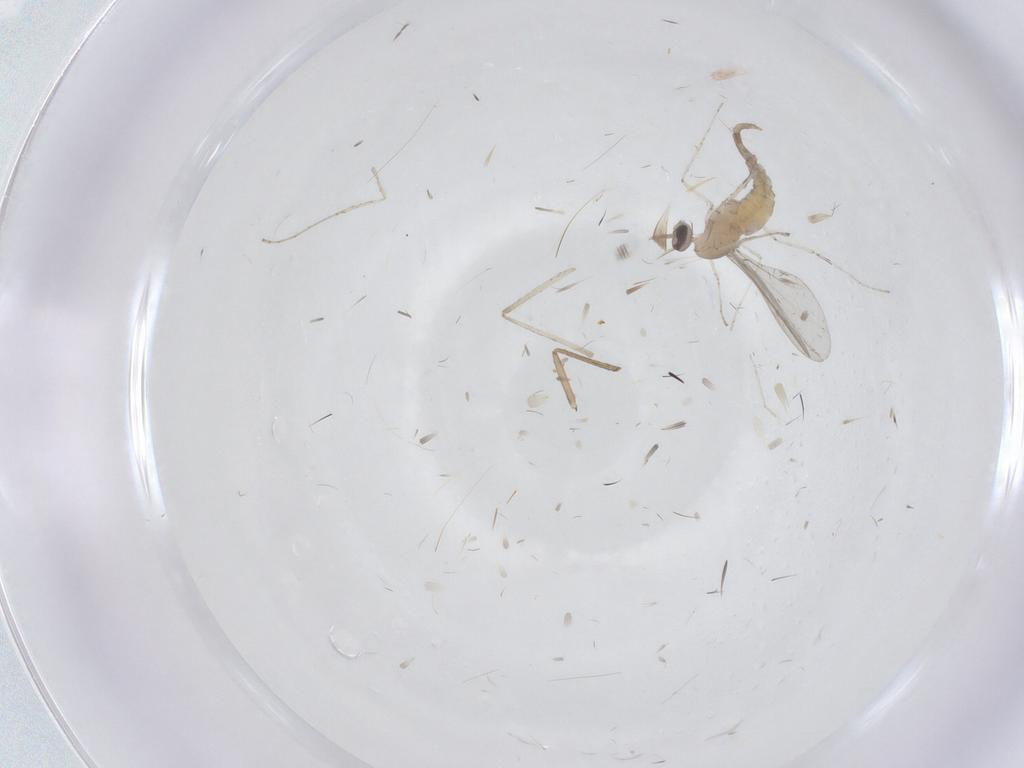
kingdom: Animalia
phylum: Arthropoda
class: Insecta
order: Diptera
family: Cecidomyiidae
